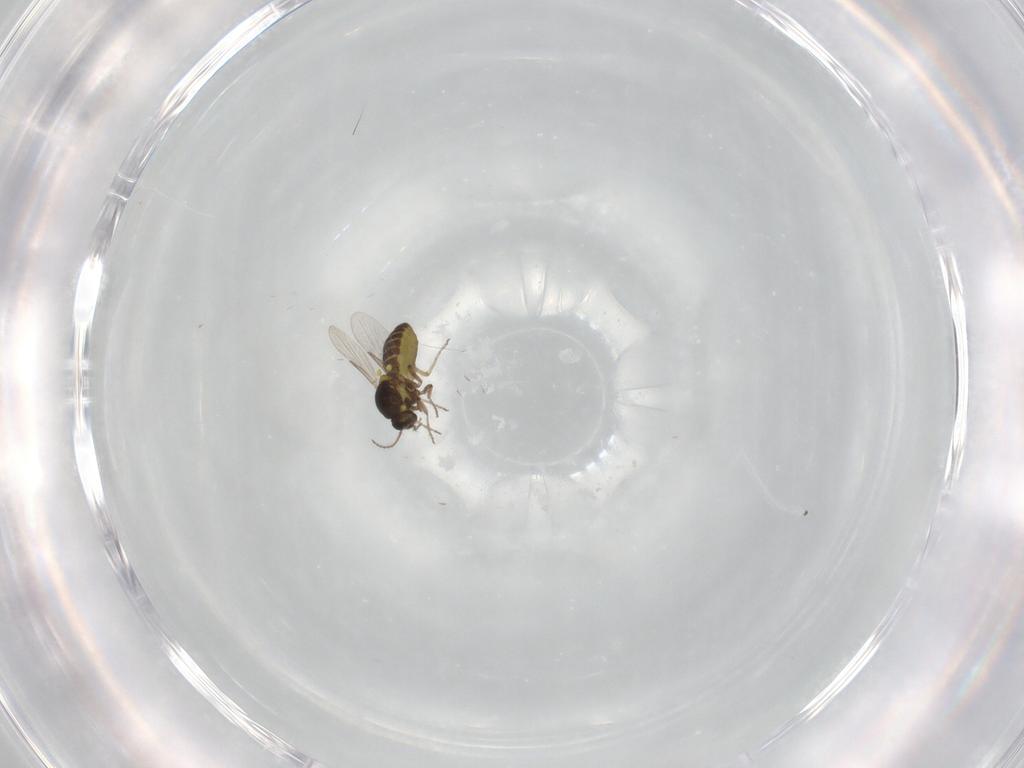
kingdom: Animalia
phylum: Arthropoda
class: Insecta
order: Diptera
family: Ceratopogonidae
